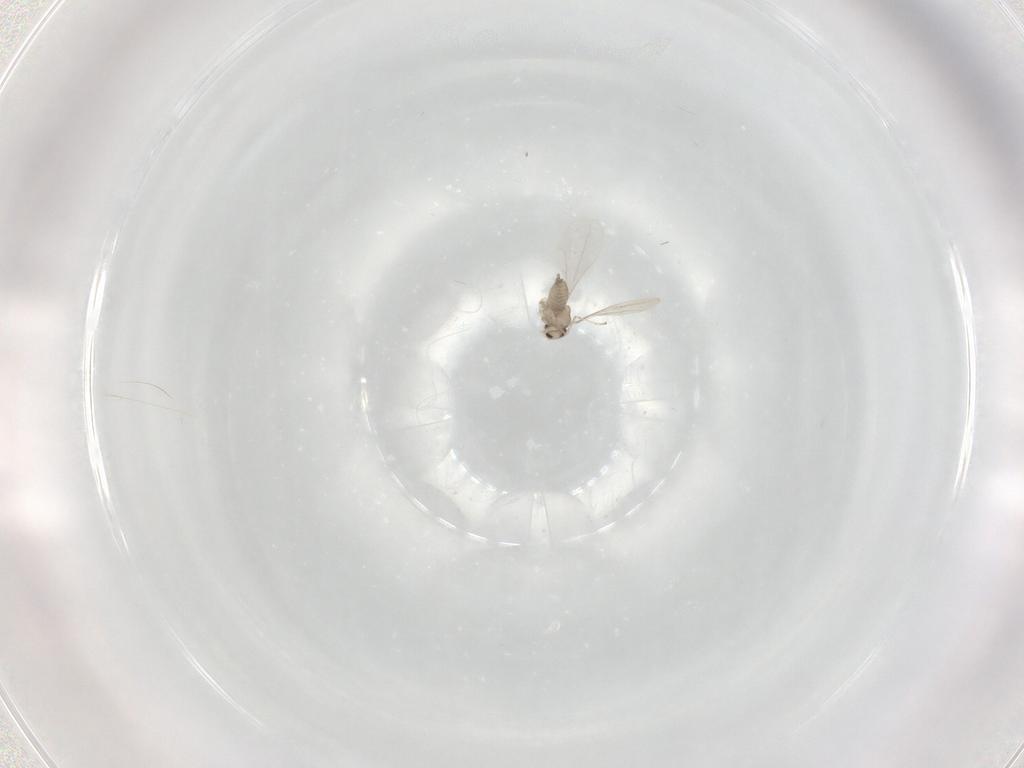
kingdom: Animalia
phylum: Arthropoda
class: Insecta
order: Diptera
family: Cecidomyiidae
